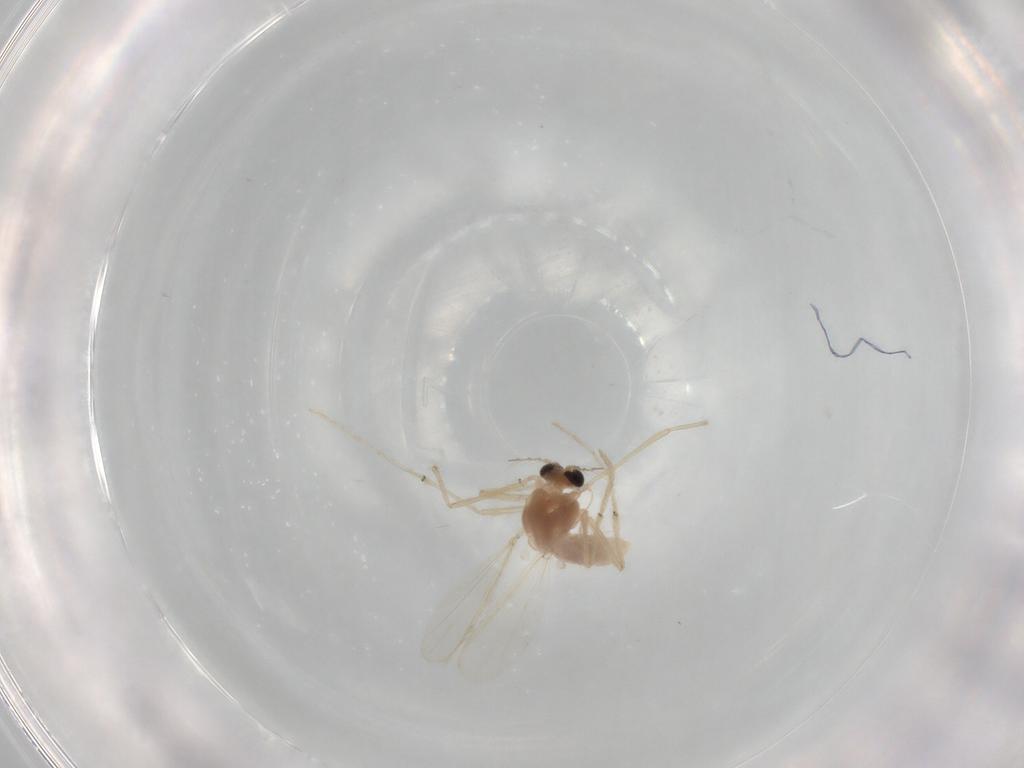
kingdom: Animalia
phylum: Arthropoda
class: Insecta
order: Diptera
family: Chironomidae
